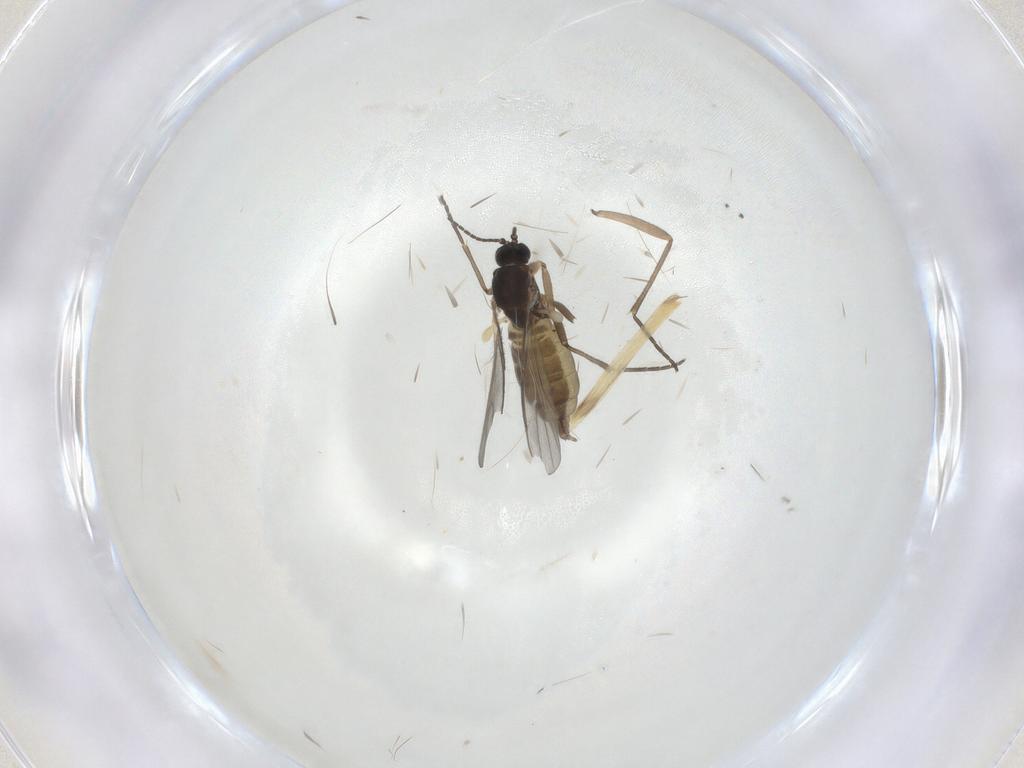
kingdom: Animalia
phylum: Arthropoda
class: Insecta
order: Diptera
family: Sciaridae
